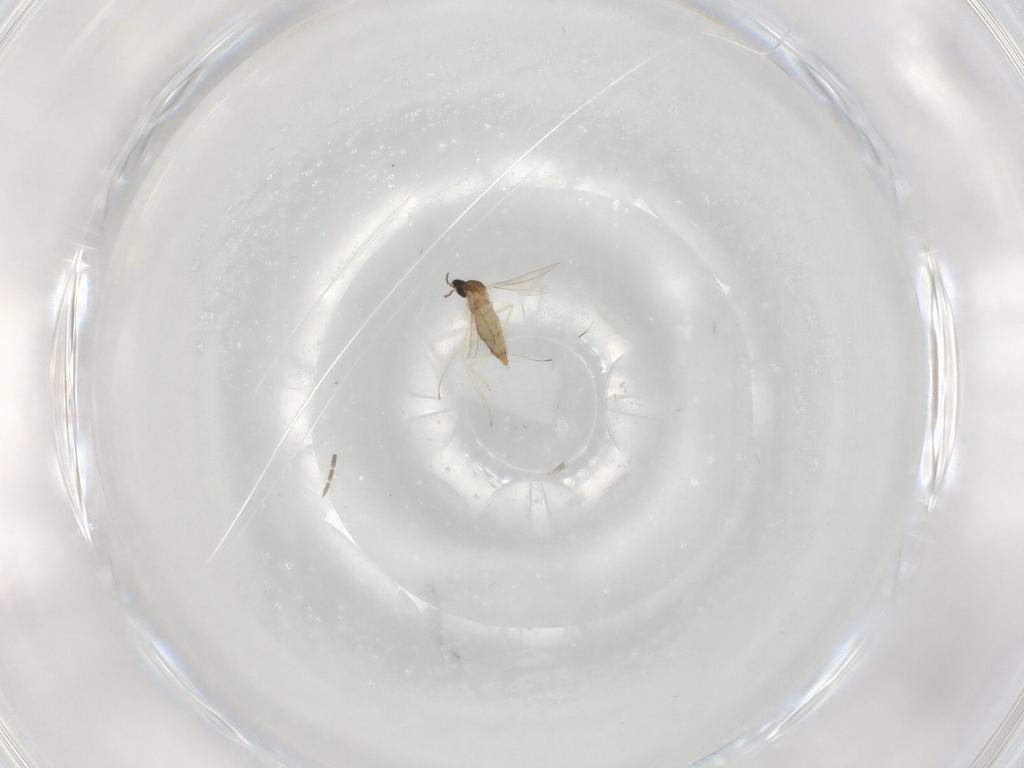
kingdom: Animalia
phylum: Arthropoda
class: Insecta
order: Diptera
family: Cecidomyiidae
